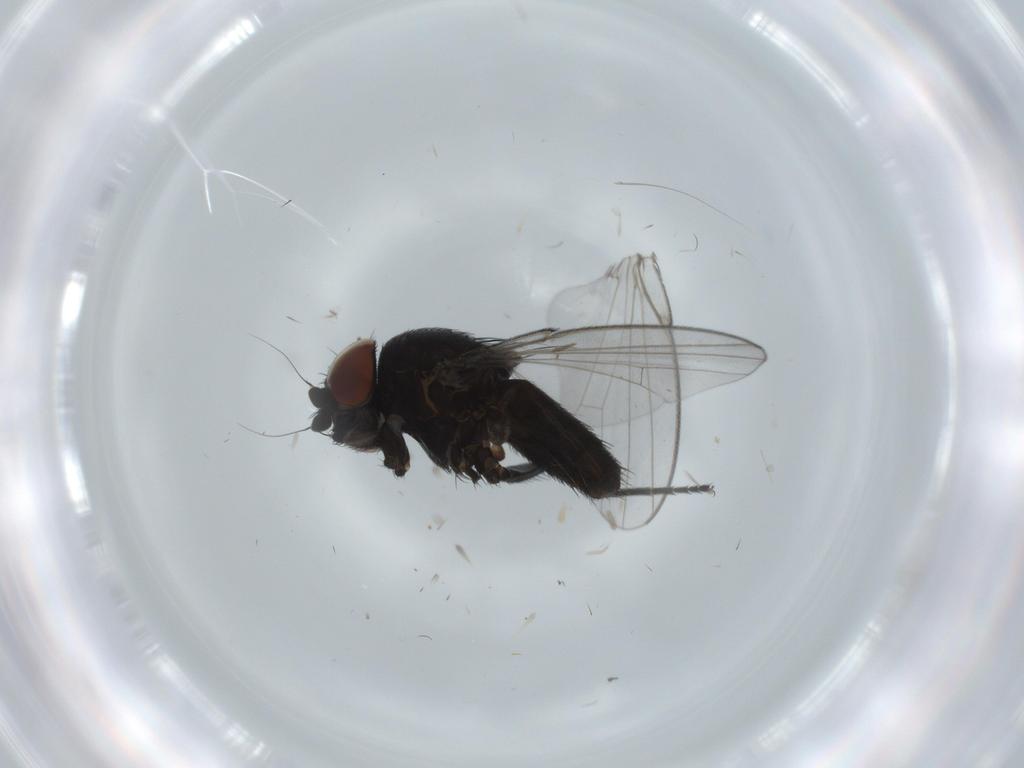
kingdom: Animalia
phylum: Arthropoda
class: Insecta
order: Diptera
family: Milichiidae
